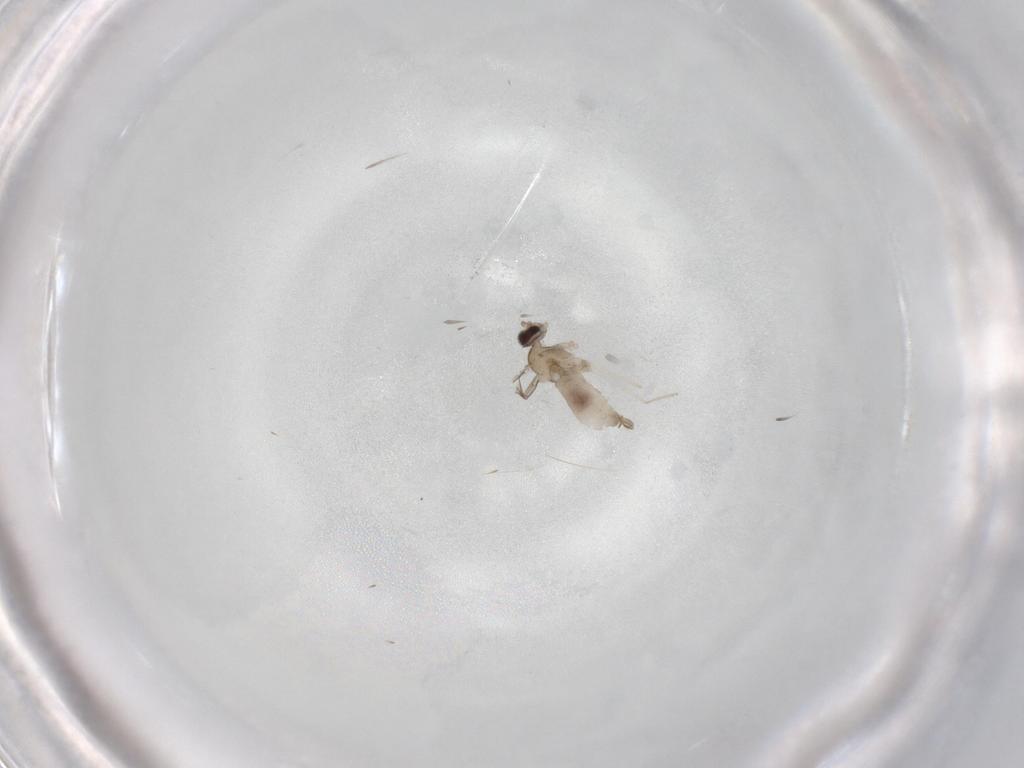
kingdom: Animalia
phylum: Arthropoda
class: Insecta
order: Diptera
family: Cecidomyiidae
